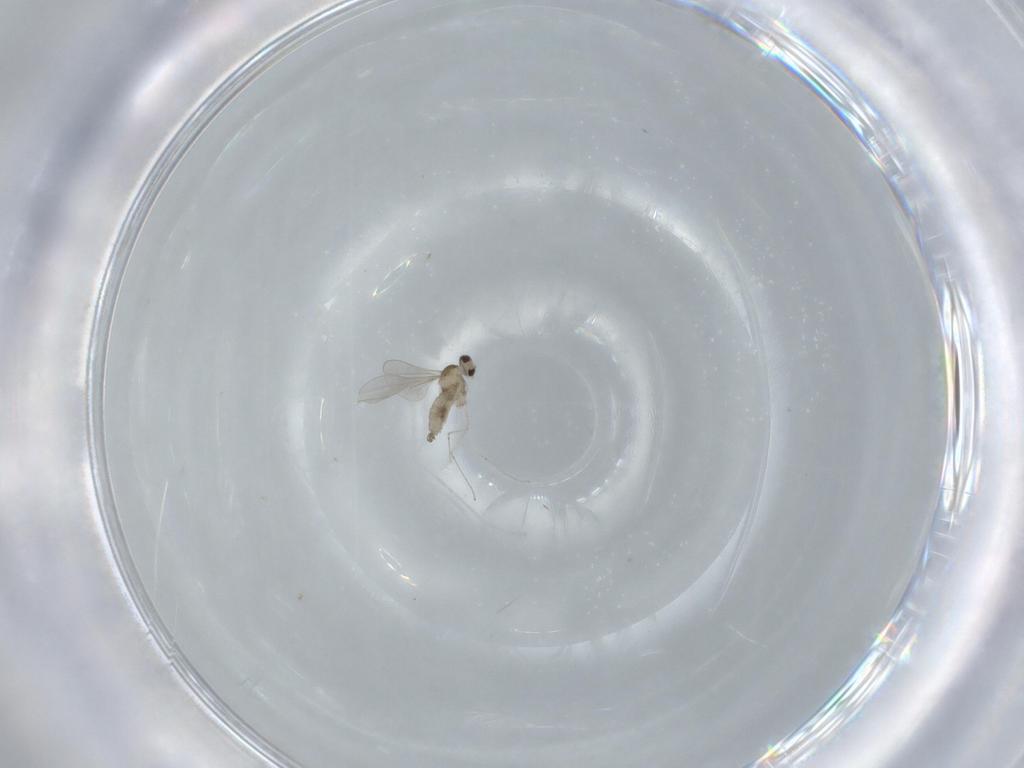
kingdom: Animalia
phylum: Arthropoda
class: Insecta
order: Diptera
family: Cecidomyiidae
